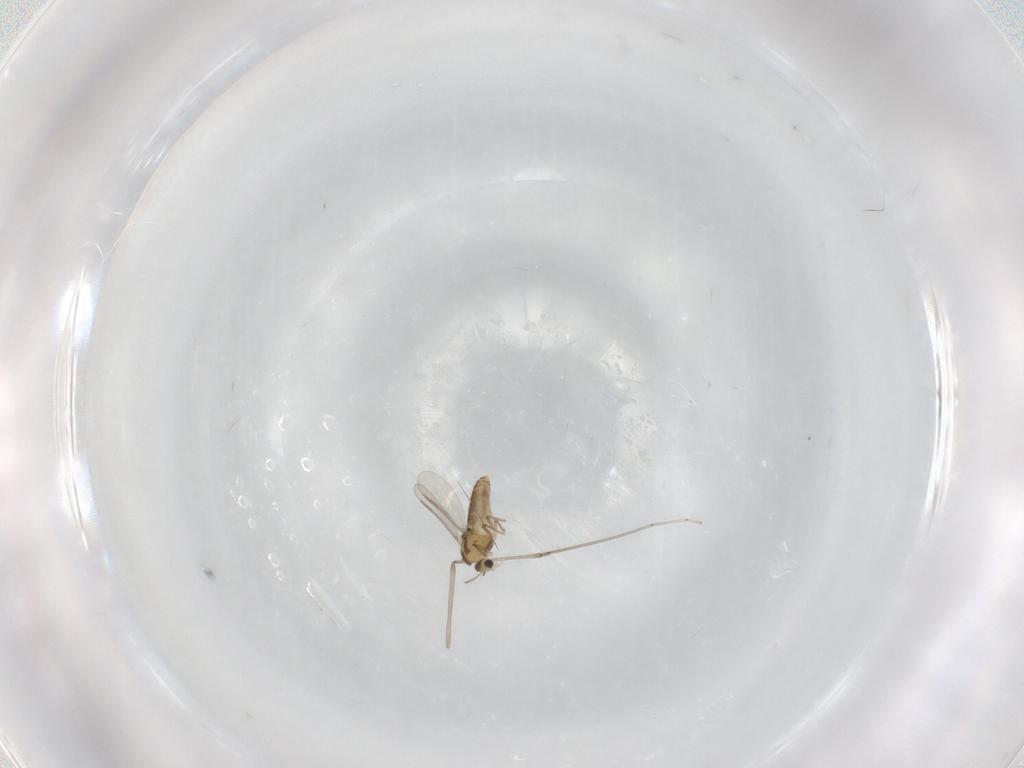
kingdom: Animalia
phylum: Arthropoda
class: Insecta
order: Diptera
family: Chironomidae
